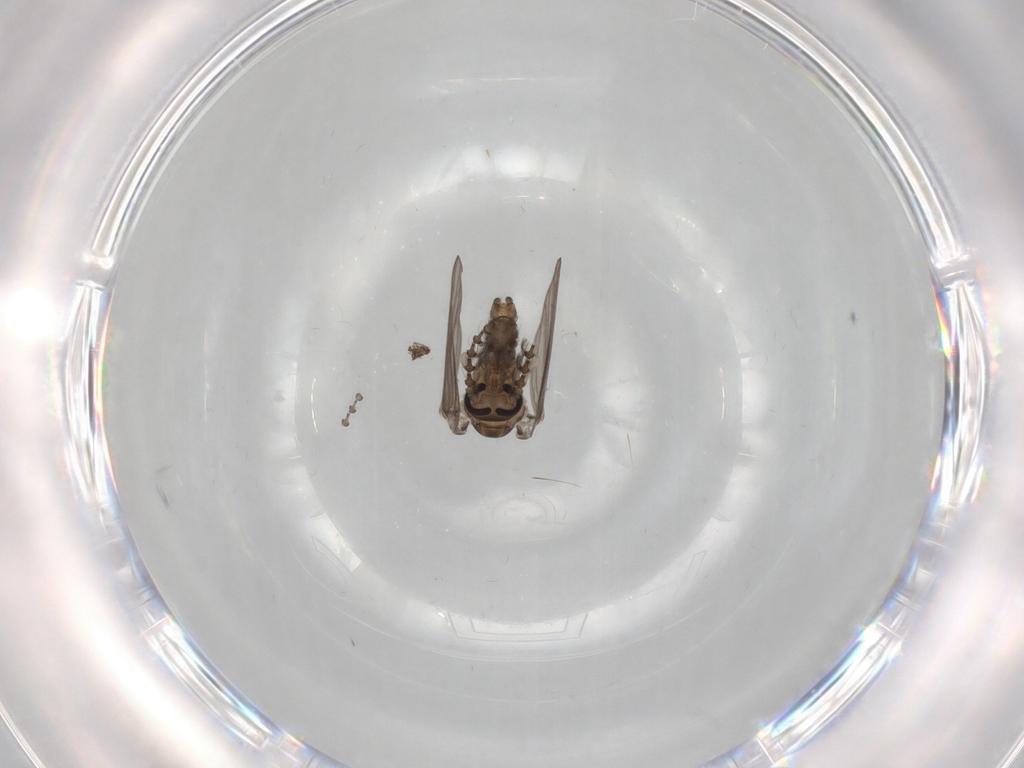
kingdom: Animalia
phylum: Arthropoda
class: Insecta
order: Diptera
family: Psychodidae
